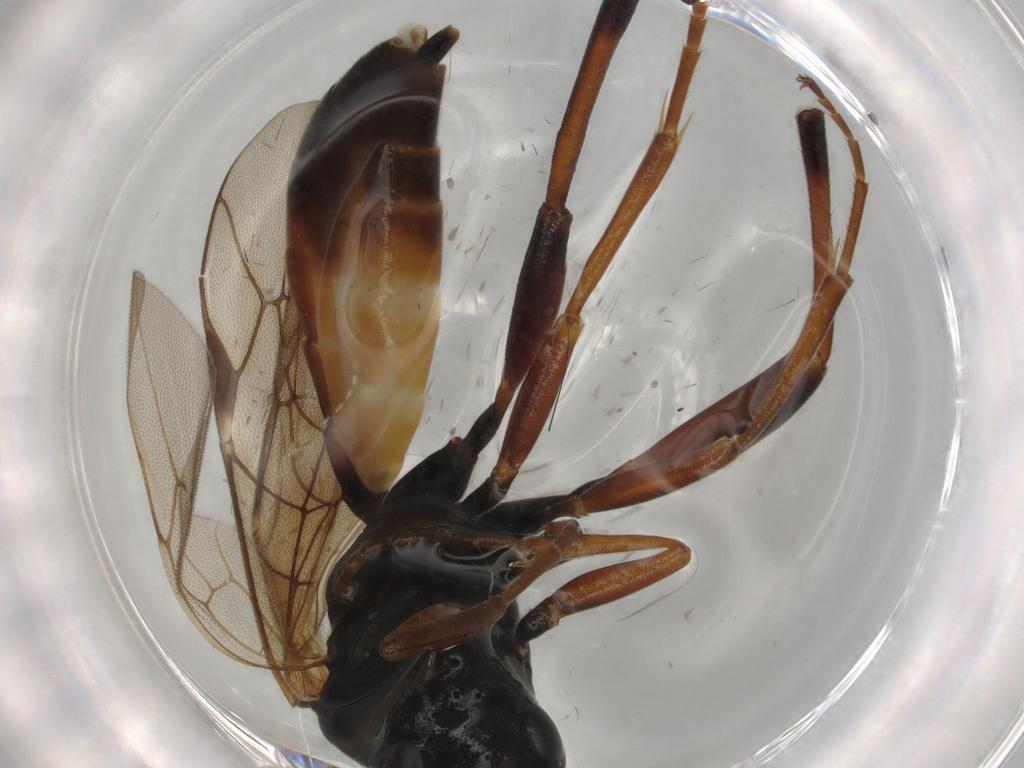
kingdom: Animalia
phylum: Arthropoda
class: Insecta
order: Hymenoptera
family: Ichneumonidae
